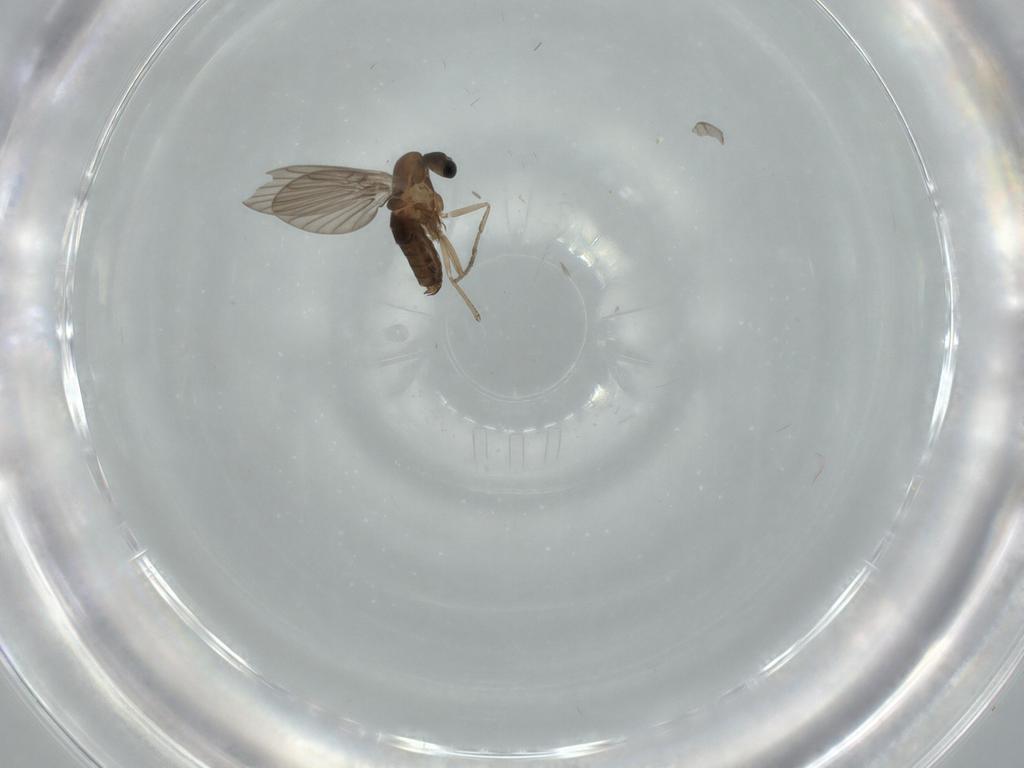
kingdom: Animalia
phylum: Arthropoda
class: Insecta
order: Diptera
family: Psychodidae
